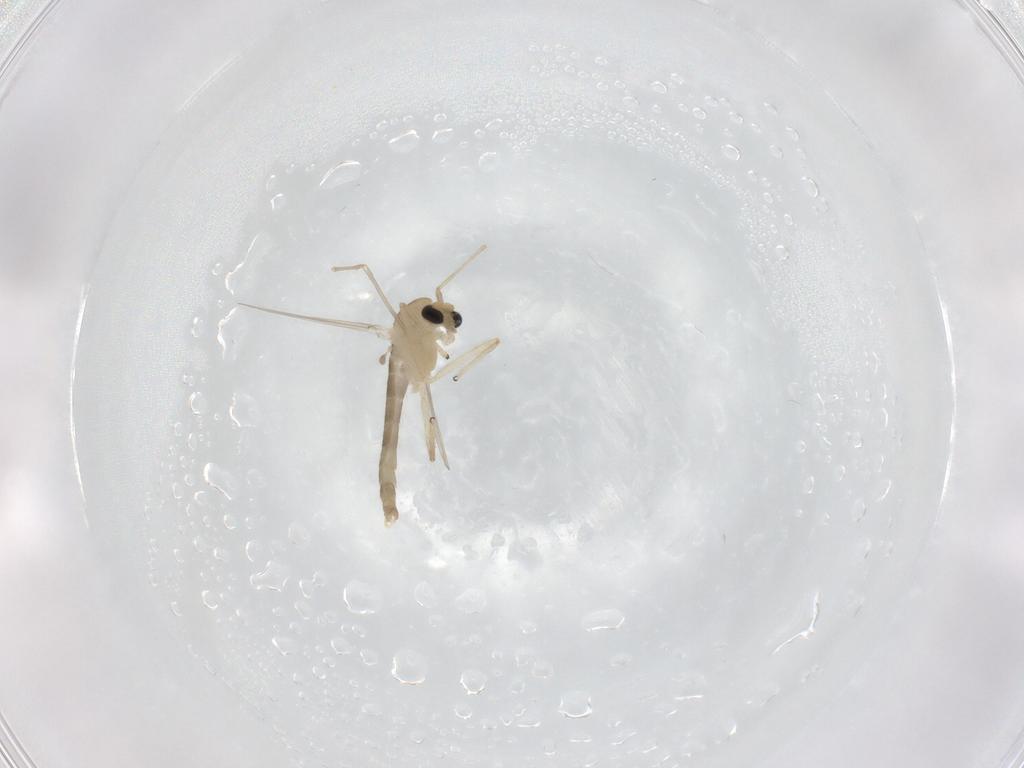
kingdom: Animalia
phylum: Arthropoda
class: Insecta
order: Diptera
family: Chironomidae
